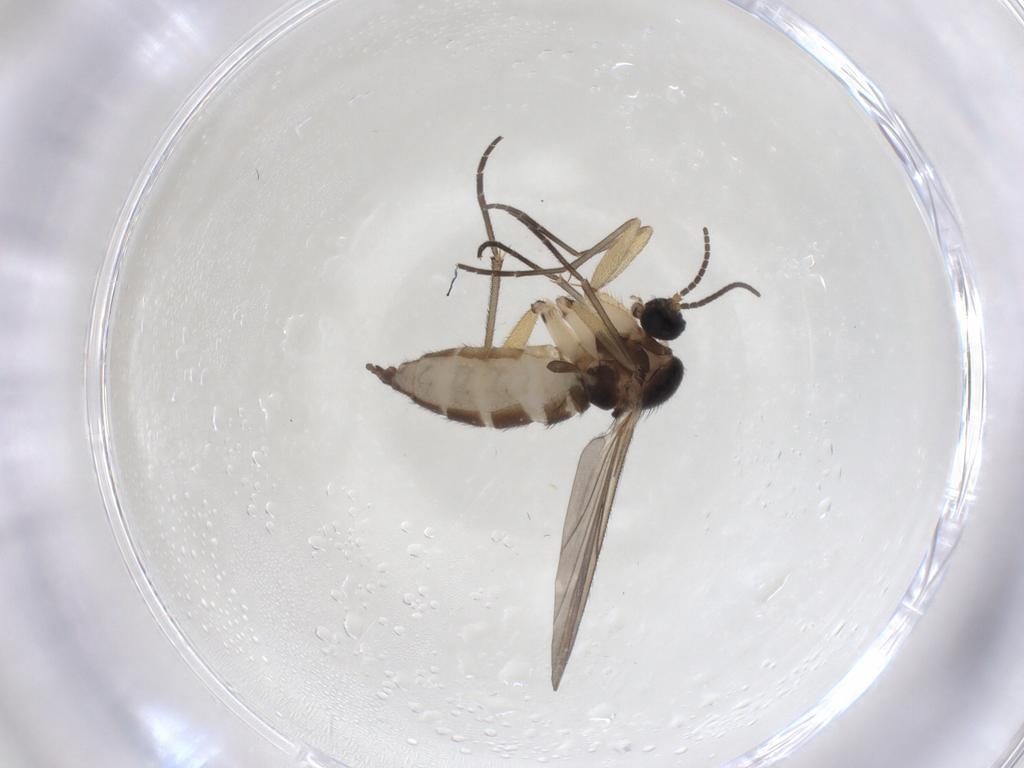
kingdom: Animalia
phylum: Arthropoda
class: Insecta
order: Diptera
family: Sciaridae
